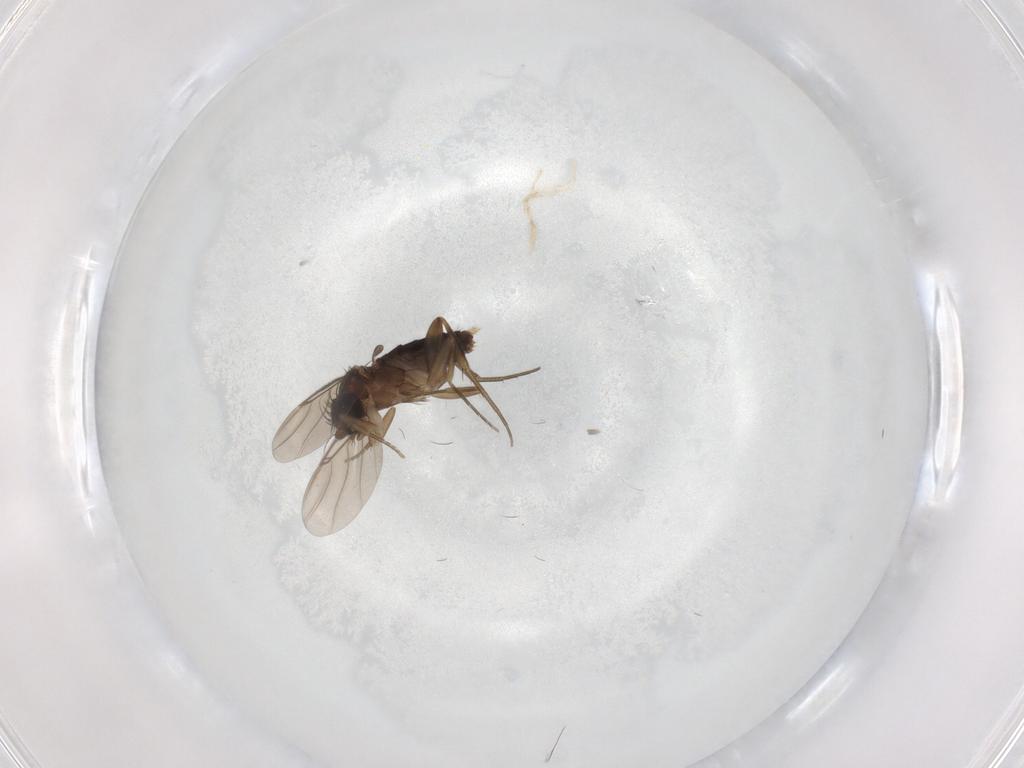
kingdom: Animalia
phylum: Arthropoda
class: Insecta
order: Diptera
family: Phoridae
